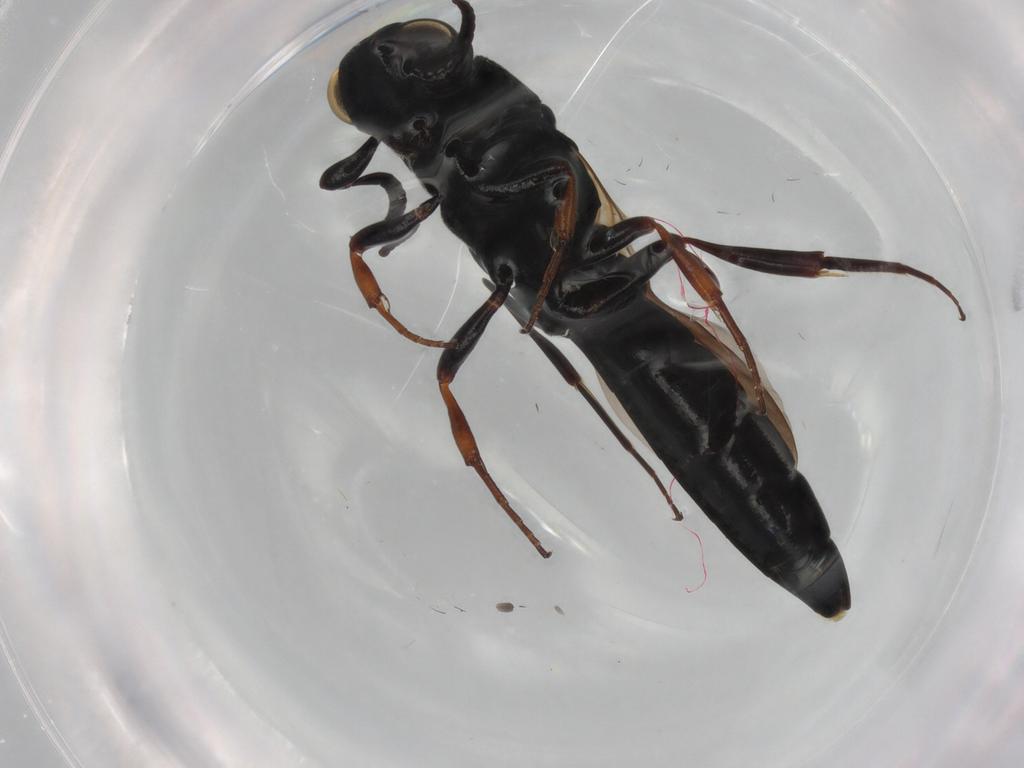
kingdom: Animalia
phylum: Arthropoda
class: Insecta
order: Hymenoptera
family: Scelionidae
